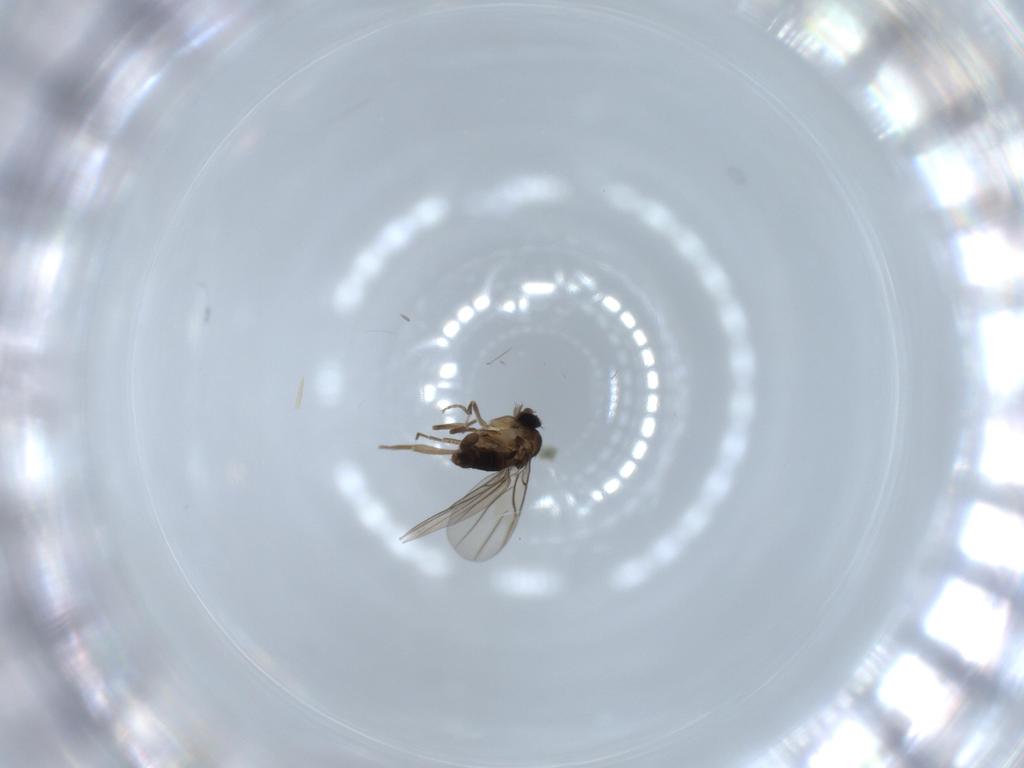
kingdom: Animalia
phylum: Arthropoda
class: Insecta
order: Diptera
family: Phoridae
